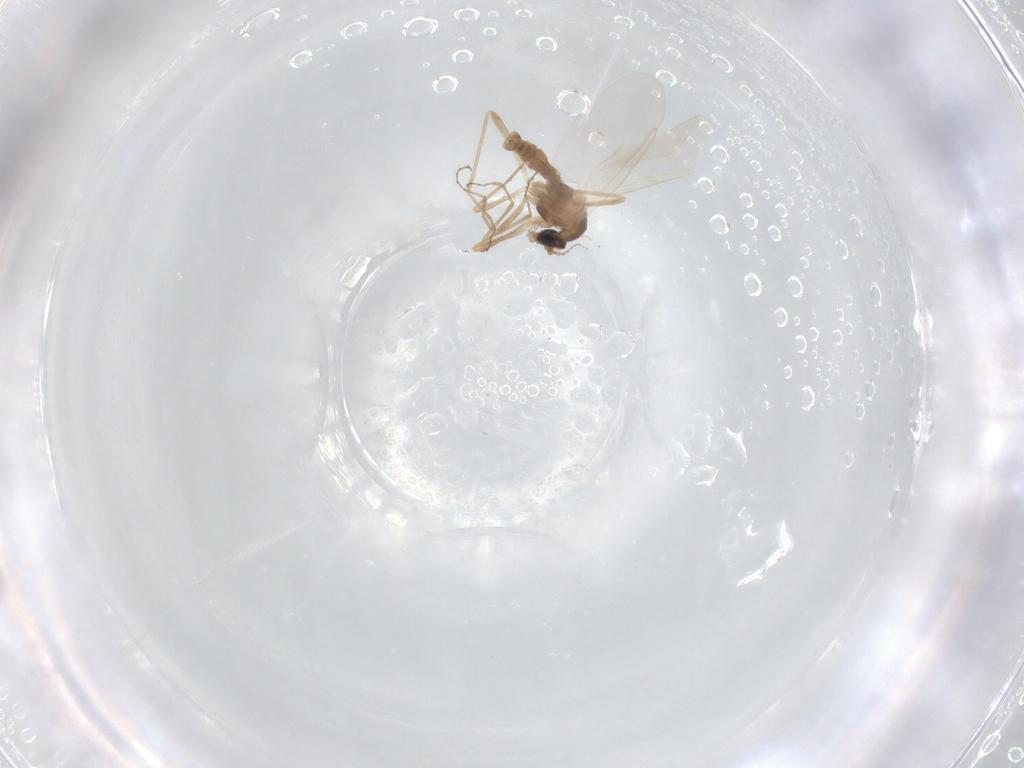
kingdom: Animalia
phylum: Arthropoda
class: Insecta
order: Diptera
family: Cecidomyiidae
